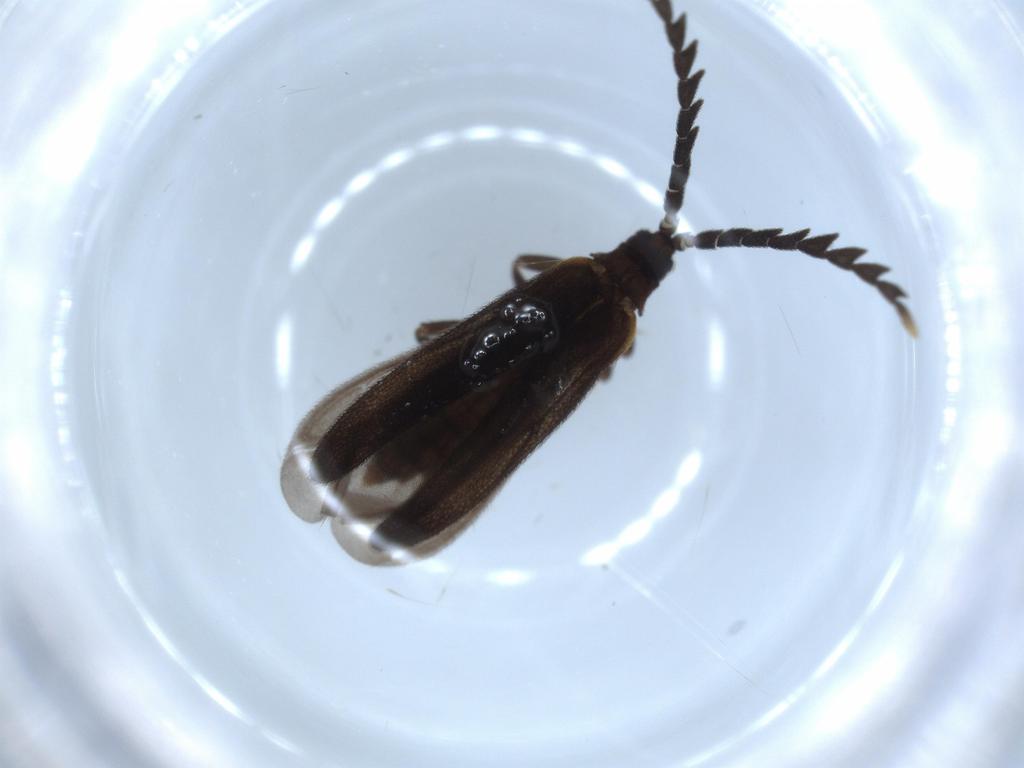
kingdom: Animalia
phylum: Arthropoda
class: Insecta
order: Coleoptera
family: Lycidae
